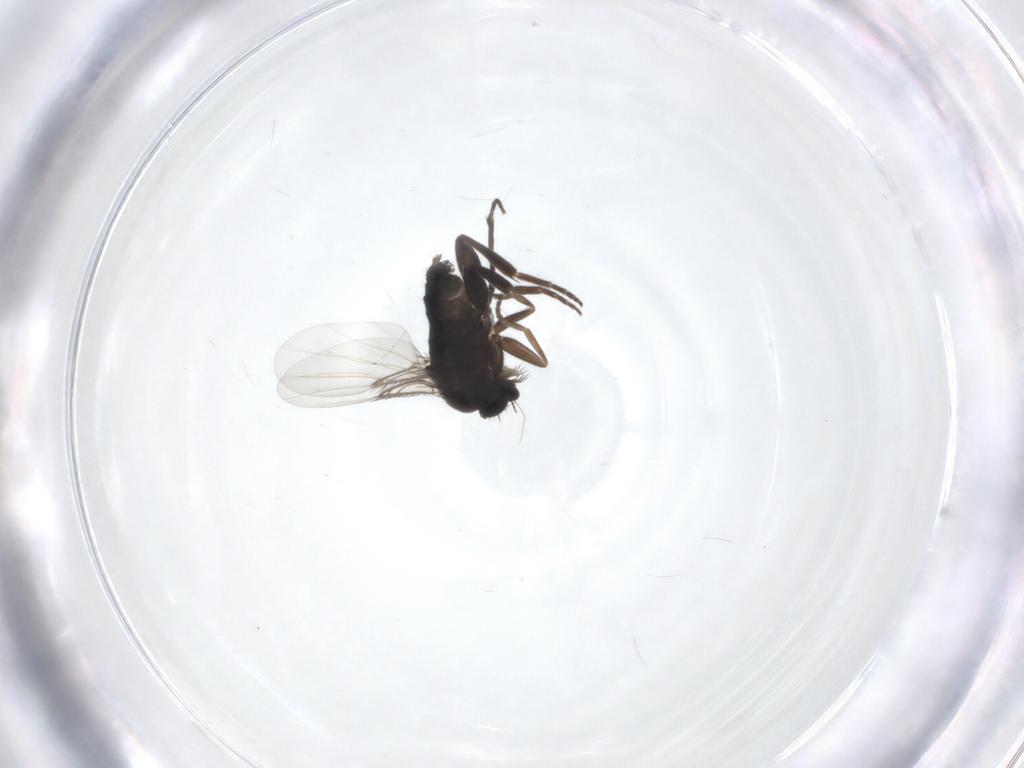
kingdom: Animalia
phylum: Arthropoda
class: Insecta
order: Diptera
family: Phoridae
